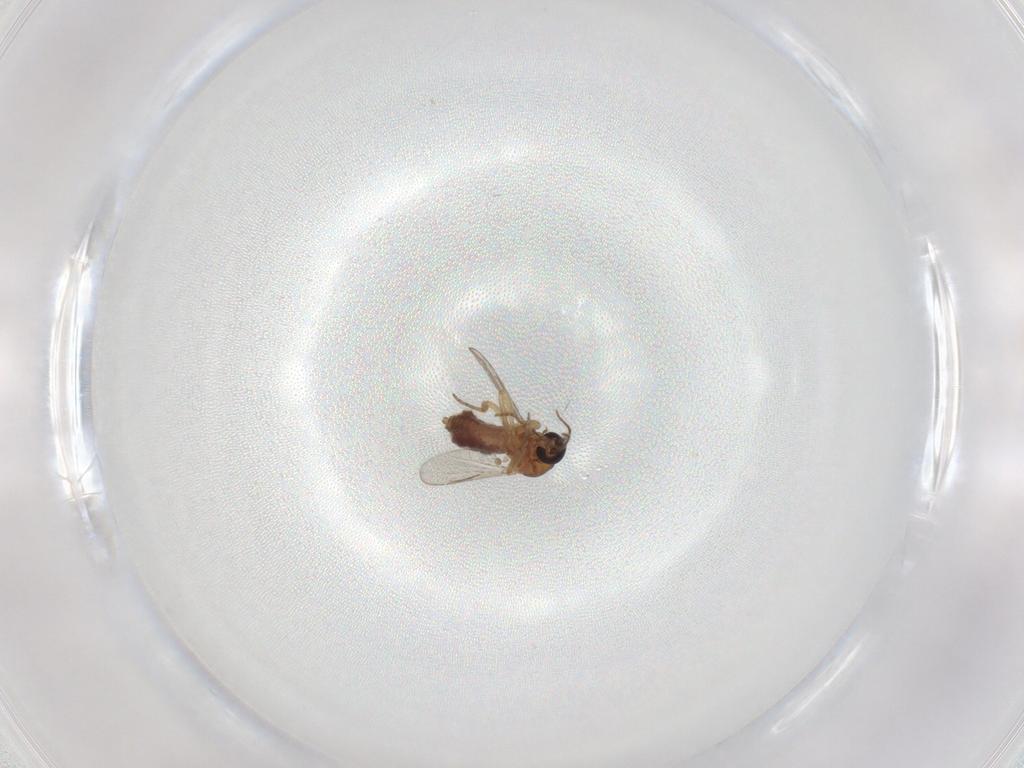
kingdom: Animalia
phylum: Arthropoda
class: Insecta
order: Diptera
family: Ceratopogonidae
